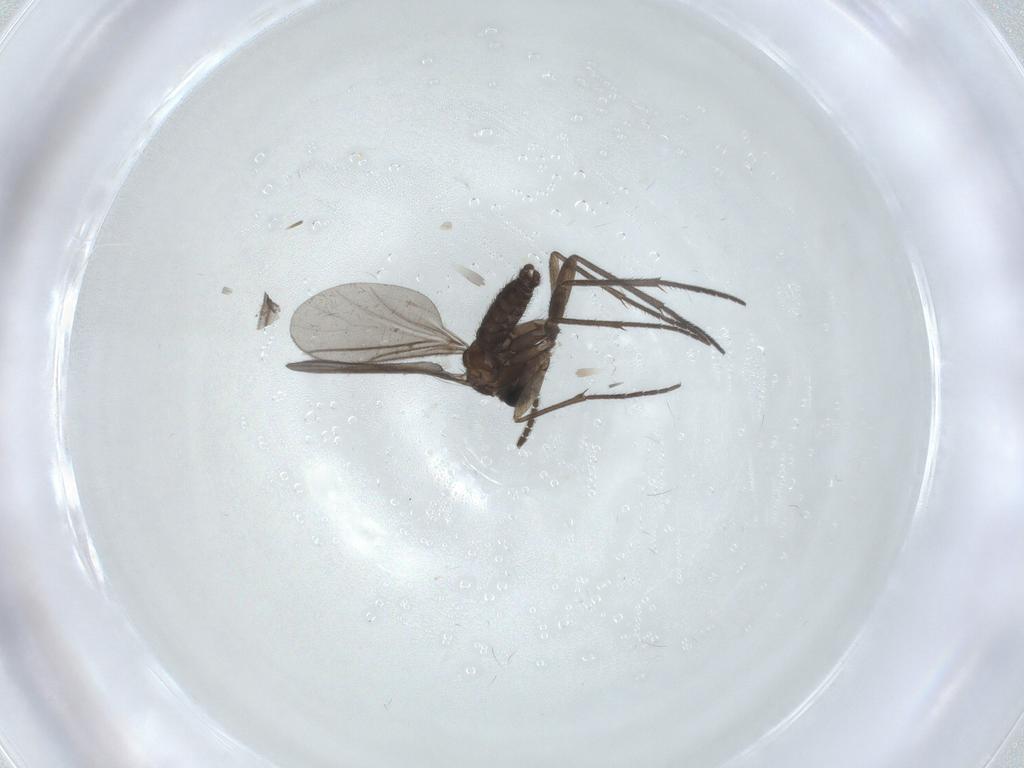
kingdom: Animalia
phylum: Arthropoda
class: Insecta
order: Diptera
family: Sciaridae
